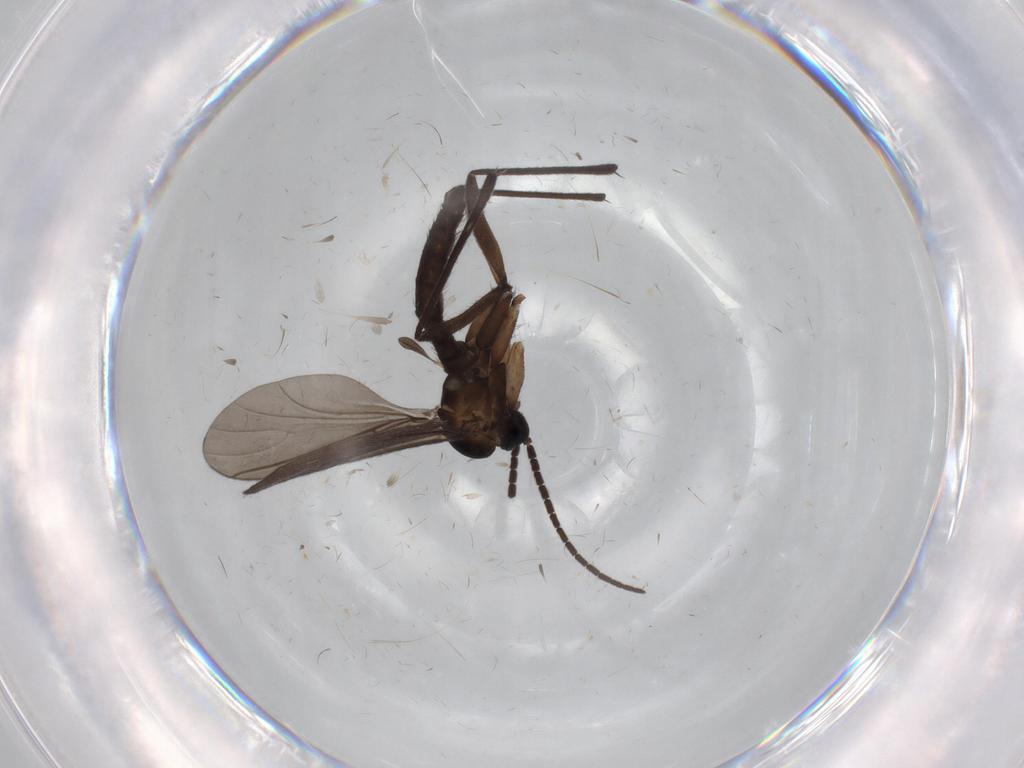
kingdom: Animalia
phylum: Arthropoda
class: Insecta
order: Diptera
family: Sciaridae
